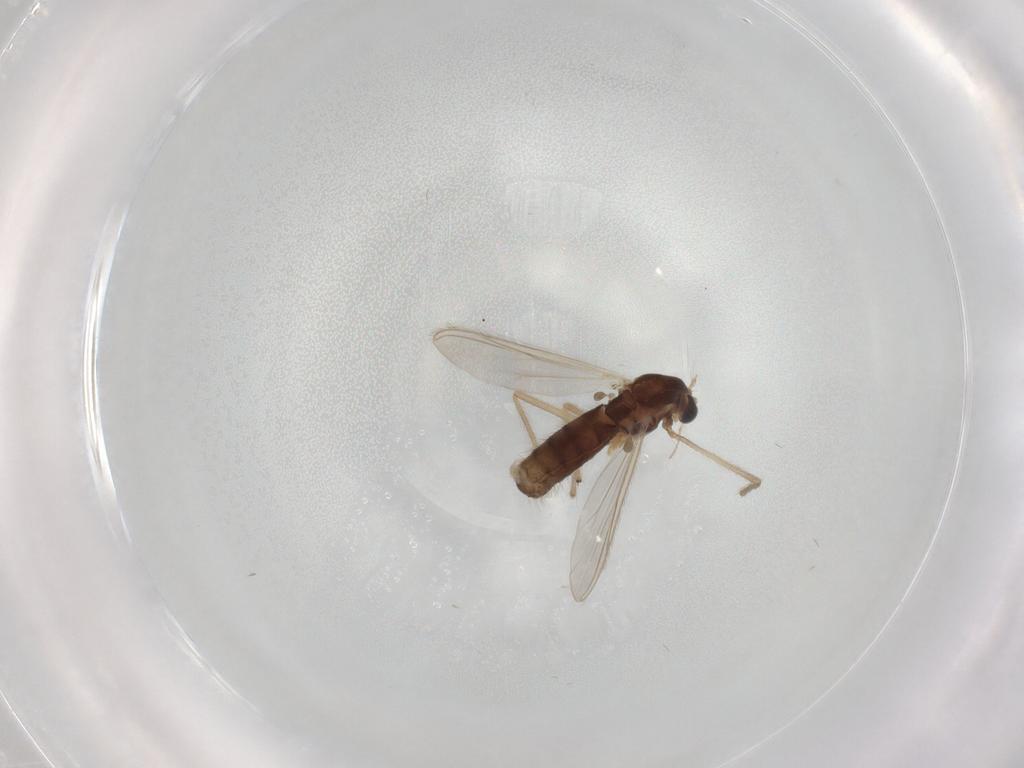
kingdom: Animalia
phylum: Arthropoda
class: Insecta
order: Diptera
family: Chironomidae
